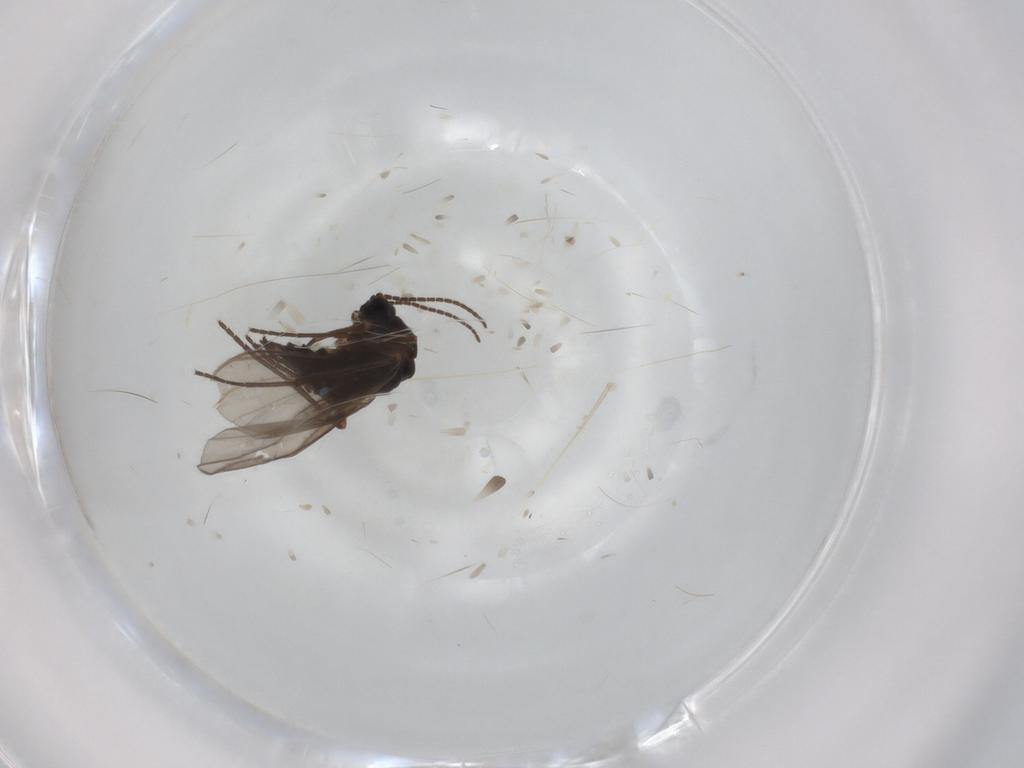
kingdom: Animalia
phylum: Arthropoda
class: Insecta
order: Diptera
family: Sciaridae
